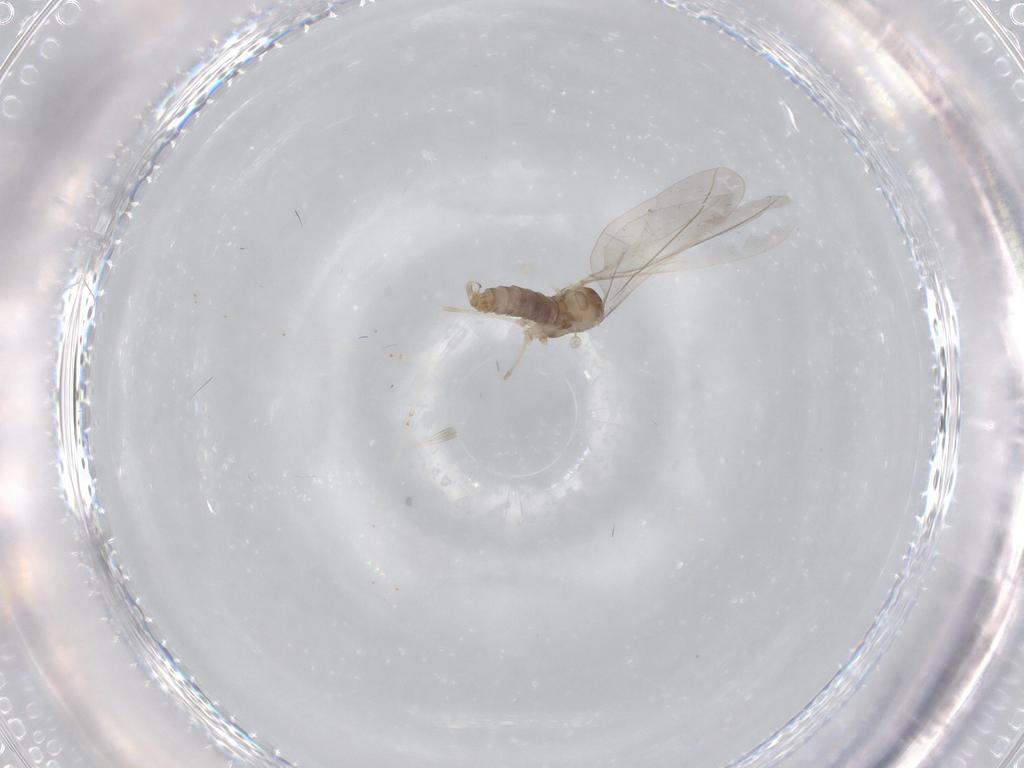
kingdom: Animalia
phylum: Arthropoda
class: Insecta
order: Diptera
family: Cecidomyiidae
